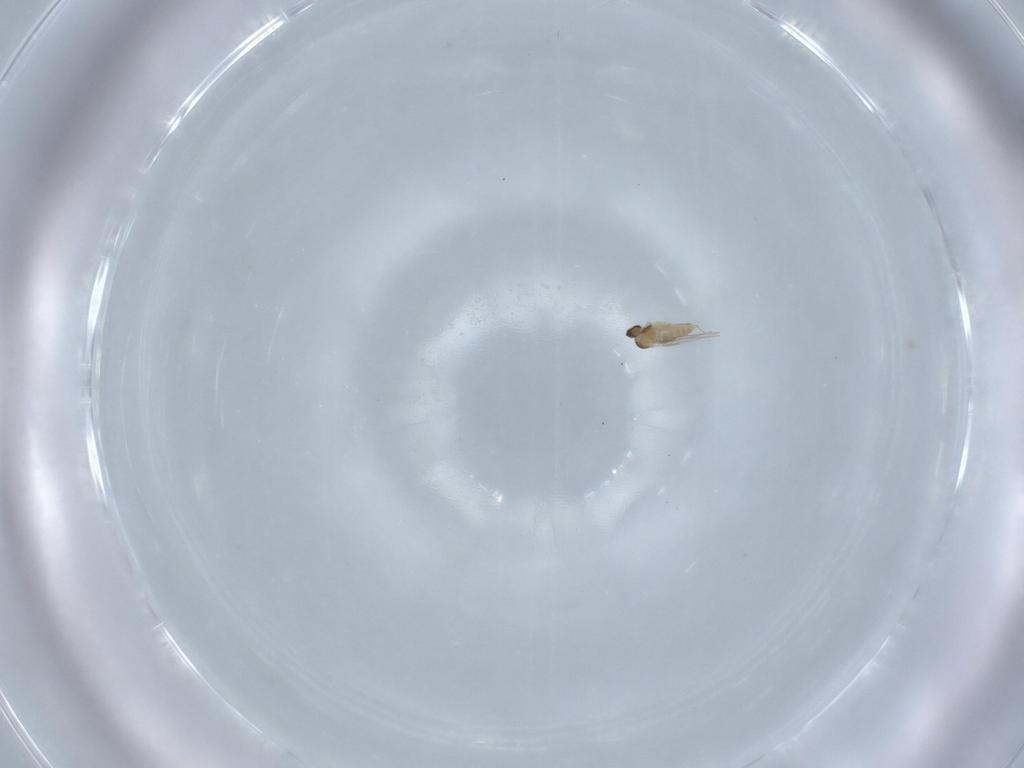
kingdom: Animalia
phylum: Arthropoda
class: Insecta
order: Diptera
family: Cecidomyiidae
